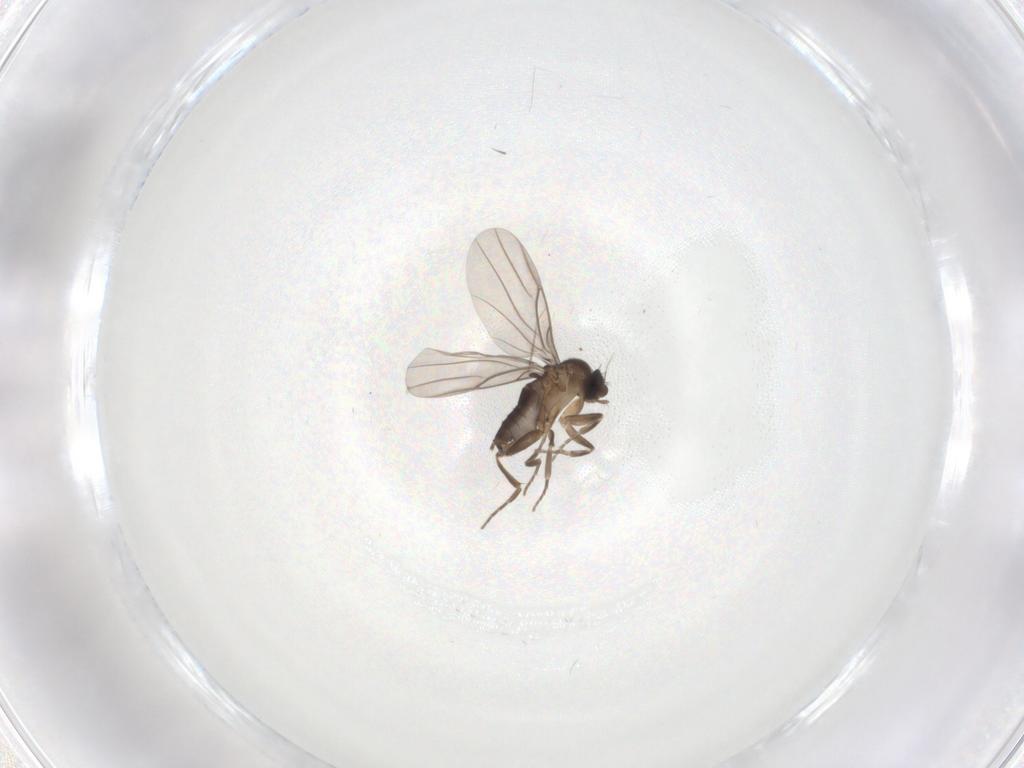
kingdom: Animalia
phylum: Arthropoda
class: Insecta
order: Diptera
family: Phoridae
